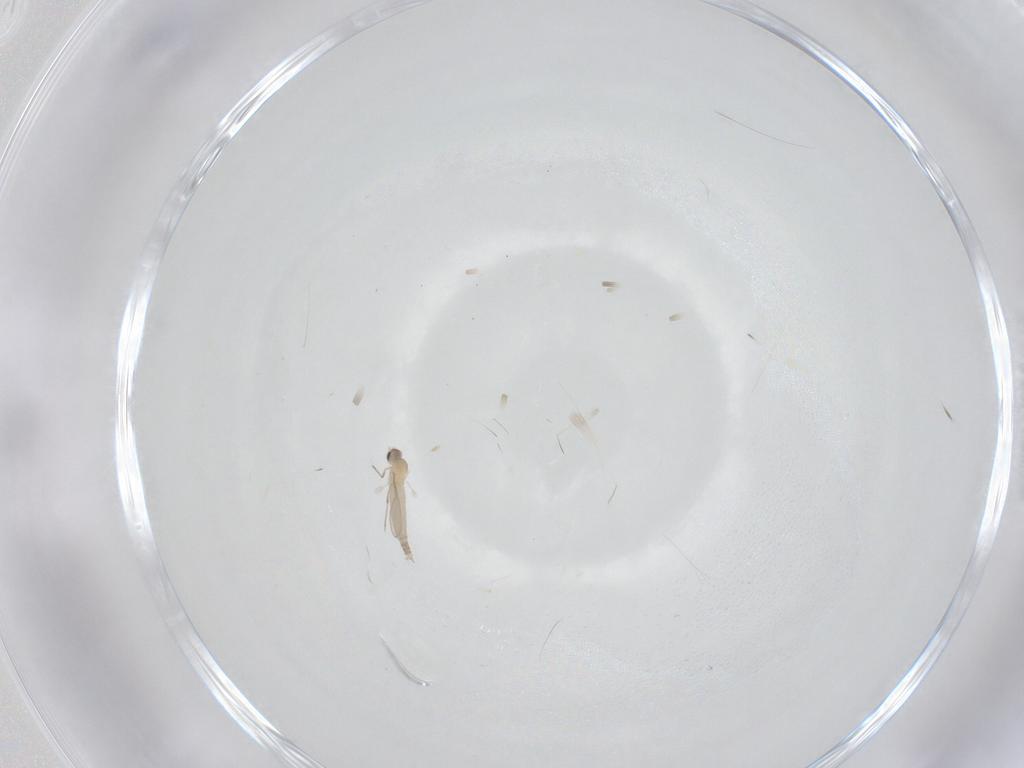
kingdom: Animalia
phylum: Arthropoda
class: Insecta
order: Diptera
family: Cecidomyiidae
